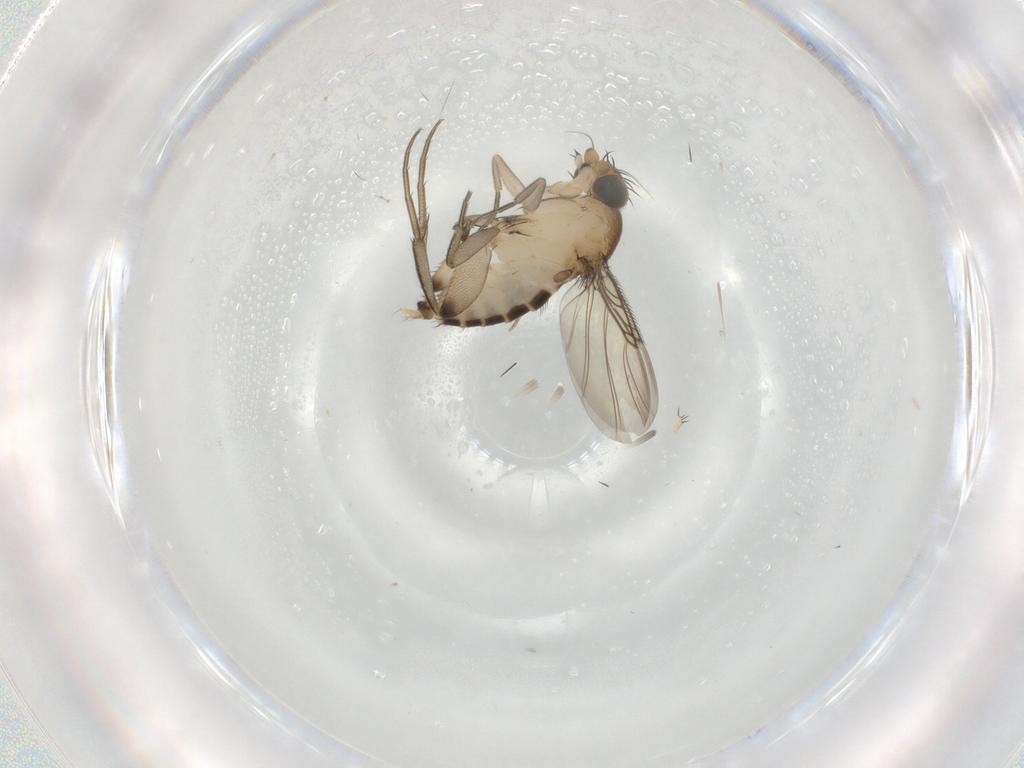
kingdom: Animalia
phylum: Arthropoda
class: Insecta
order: Diptera
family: Phoridae
